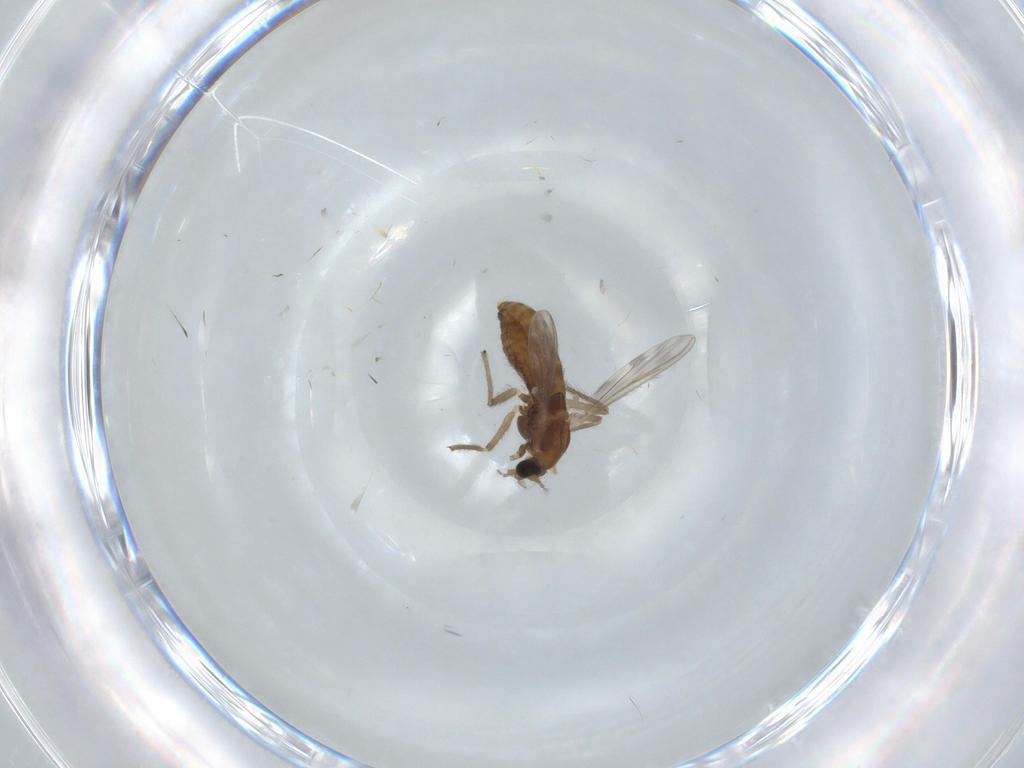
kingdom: Animalia
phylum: Arthropoda
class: Insecta
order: Diptera
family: Chironomidae
